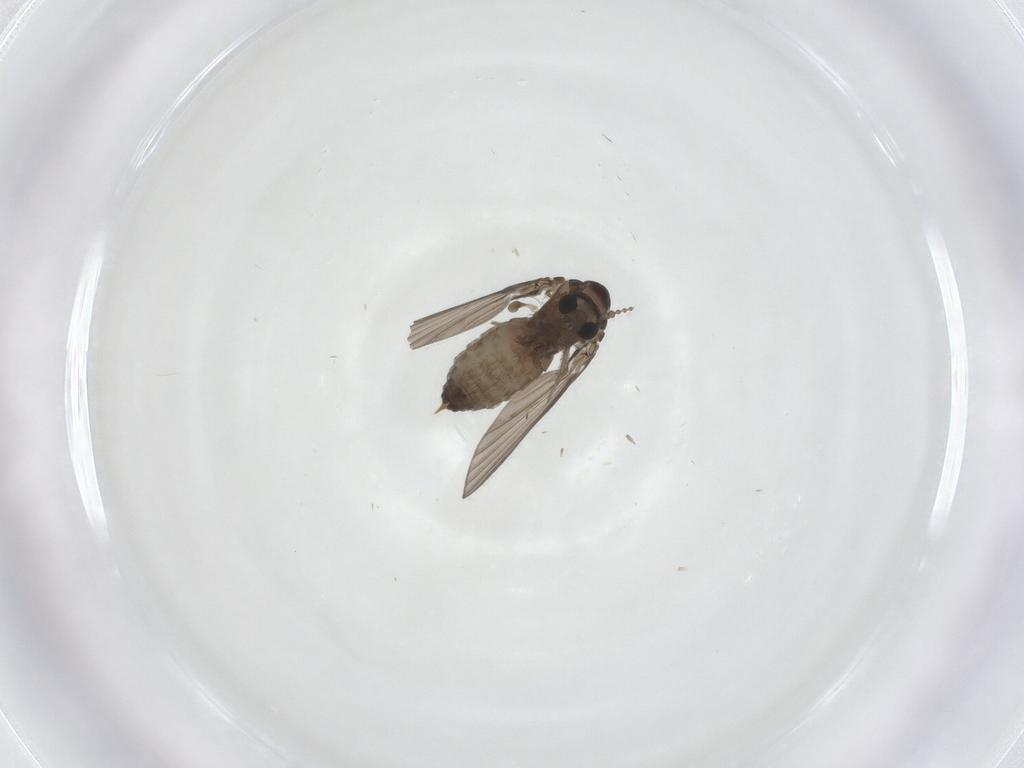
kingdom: Animalia
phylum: Arthropoda
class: Insecta
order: Diptera
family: Psychodidae
